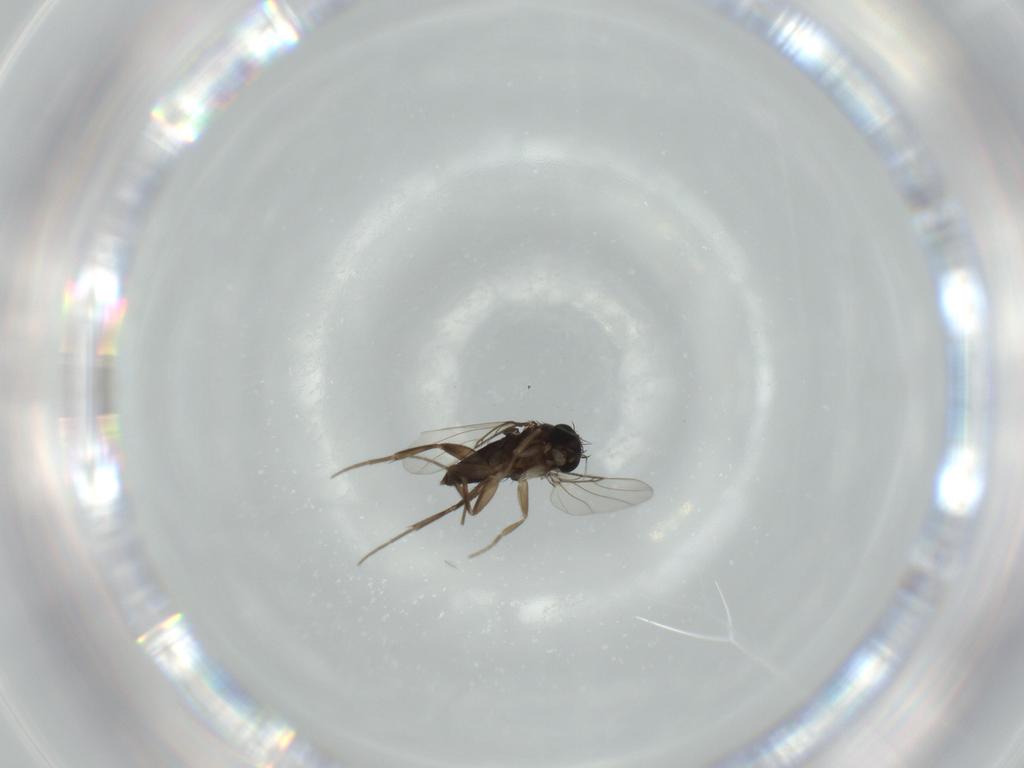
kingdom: Animalia
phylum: Arthropoda
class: Insecta
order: Diptera
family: Phoridae
